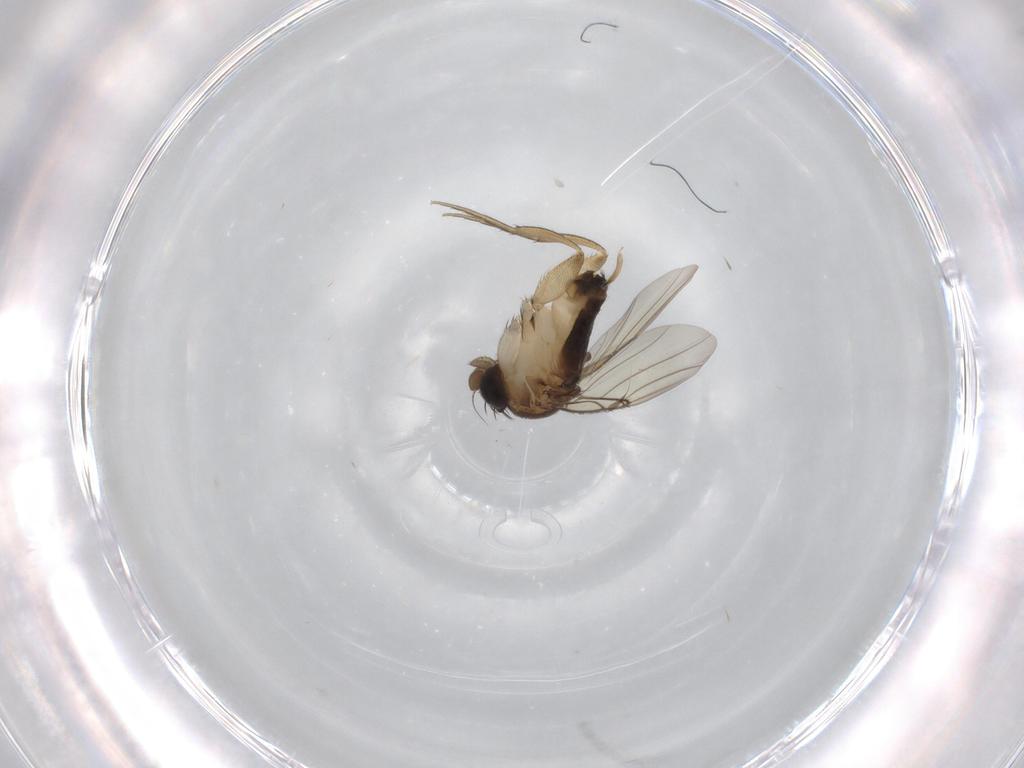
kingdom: Animalia
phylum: Arthropoda
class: Insecta
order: Diptera
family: Phoridae
